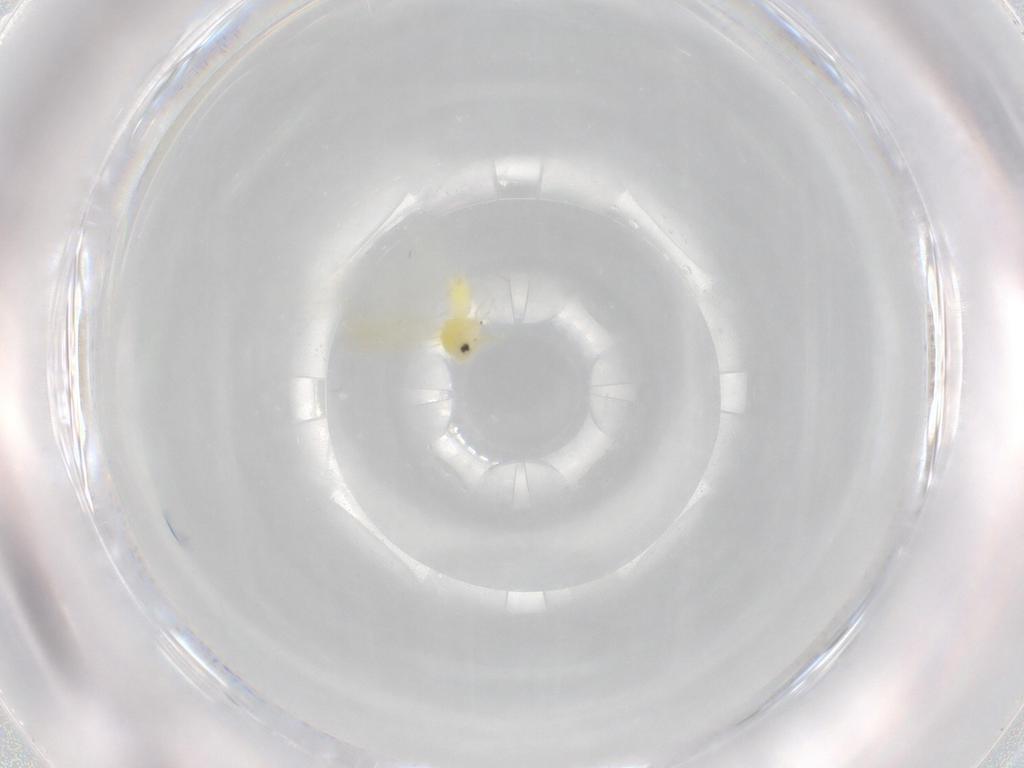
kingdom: Animalia
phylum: Arthropoda
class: Insecta
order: Hemiptera
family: Aleyrodidae
